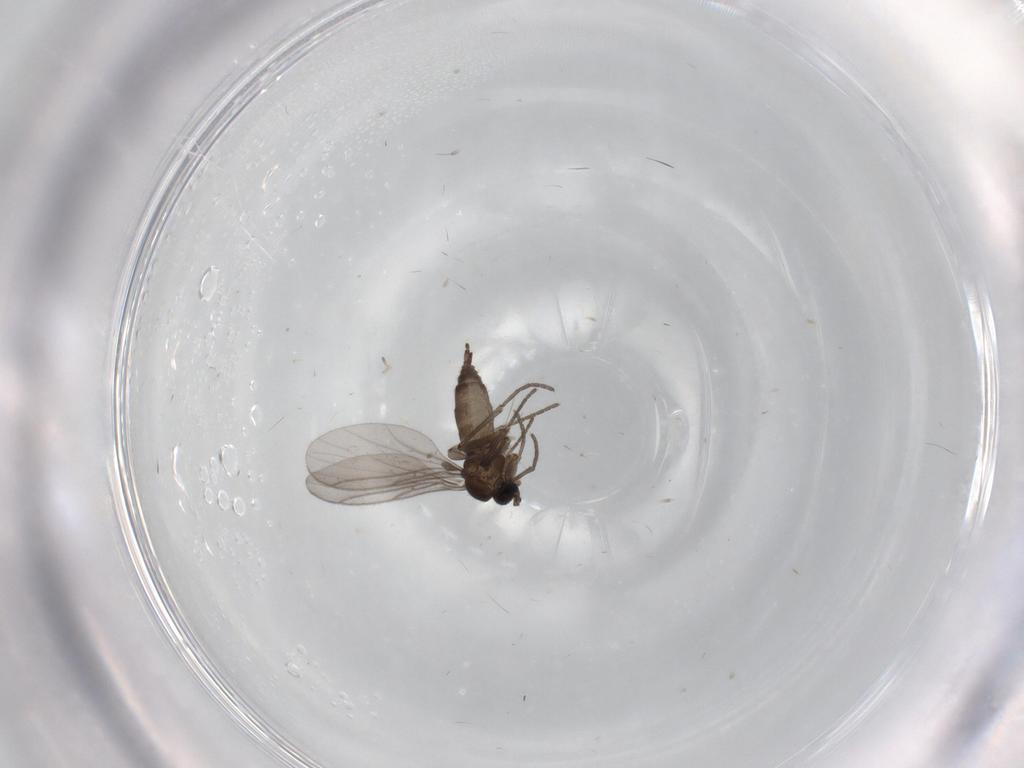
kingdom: Animalia
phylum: Arthropoda
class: Insecta
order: Diptera
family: Sciaridae
